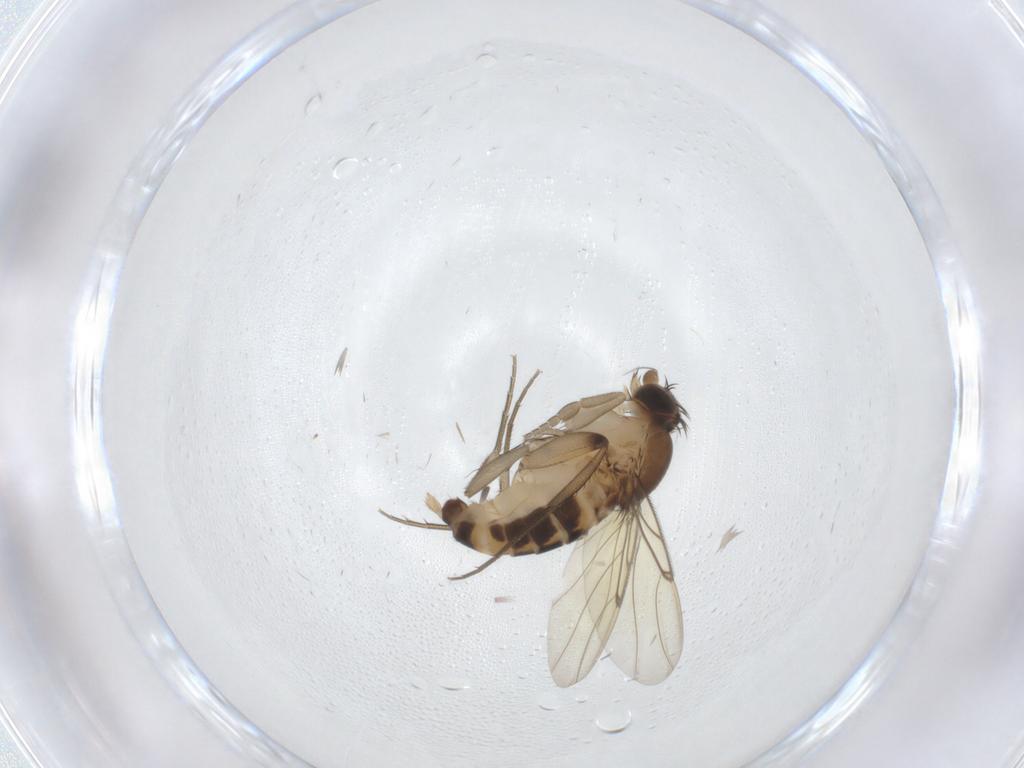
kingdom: Animalia
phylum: Arthropoda
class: Insecta
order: Diptera
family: Phoridae
